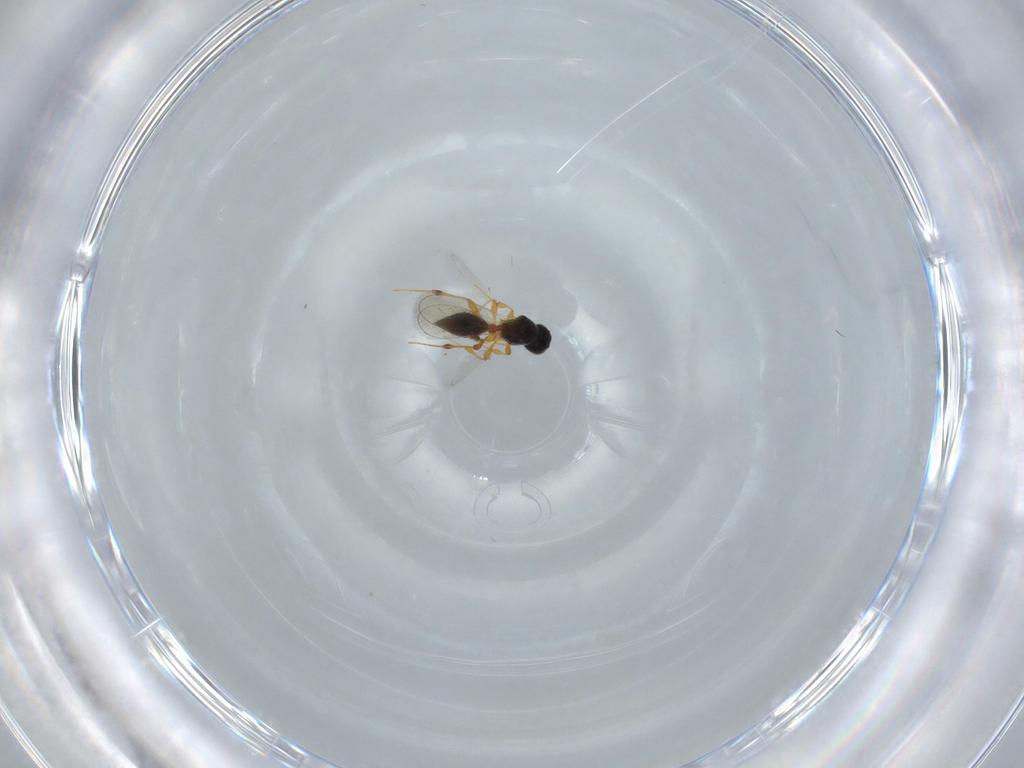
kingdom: Animalia
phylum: Arthropoda
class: Insecta
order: Hymenoptera
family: Platygastridae
